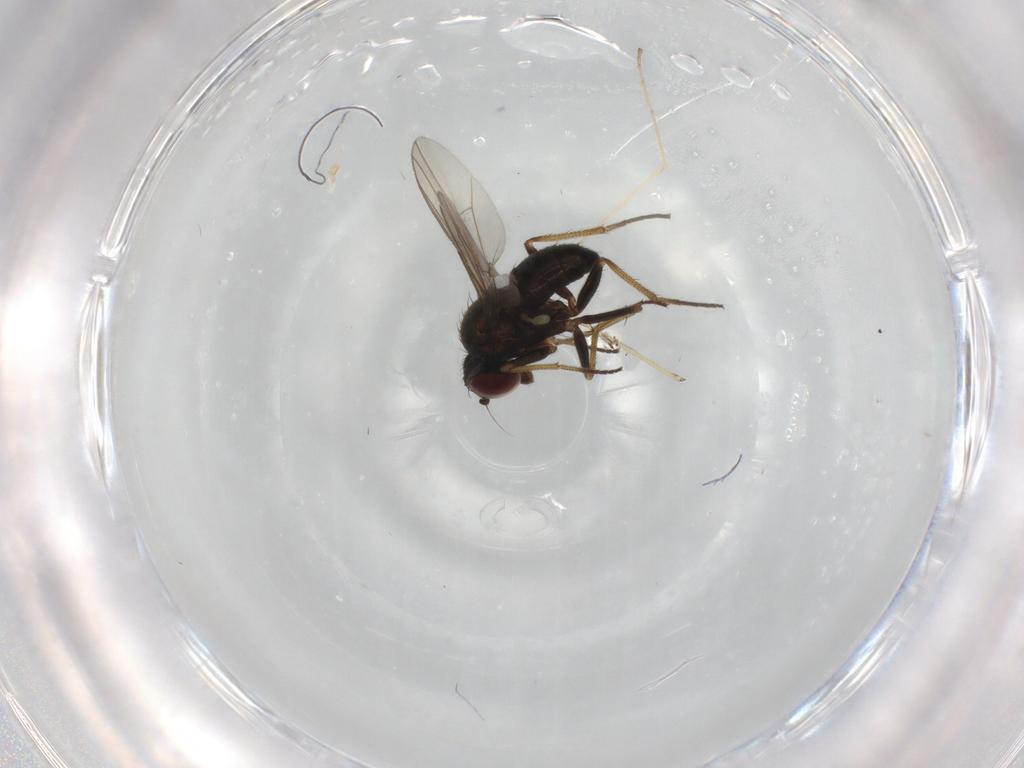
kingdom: Animalia
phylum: Arthropoda
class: Insecta
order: Diptera
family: Dolichopodidae
